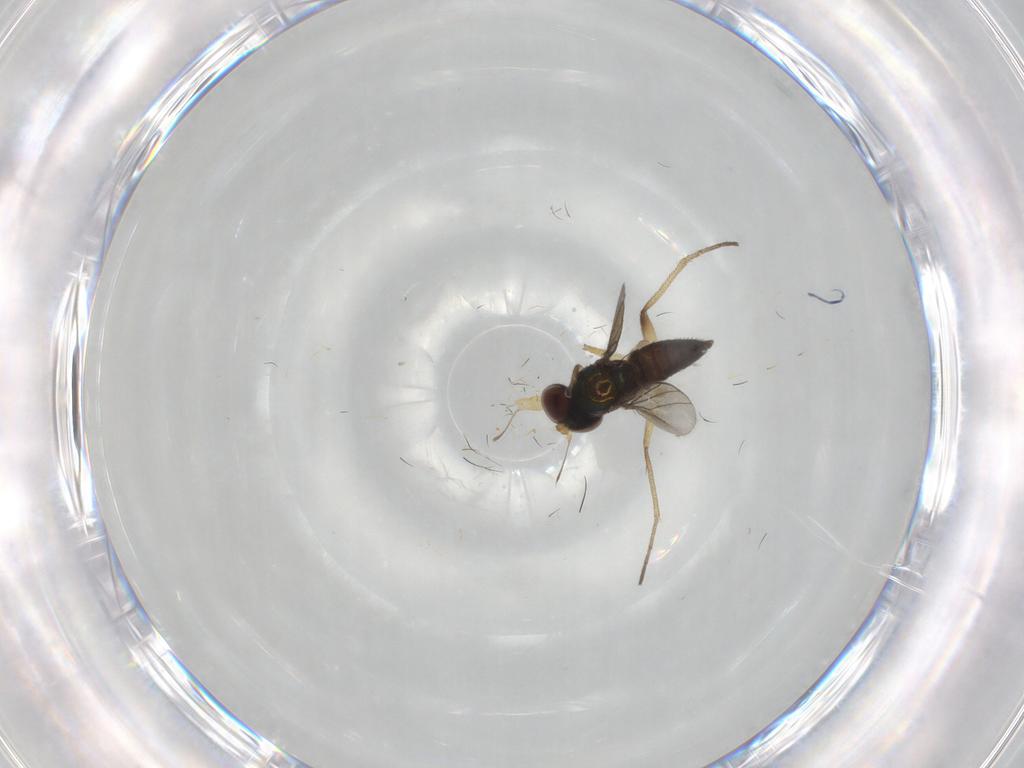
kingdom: Animalia
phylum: Arthropoda
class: Insecta
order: Diptera
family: Dolichopodidae
